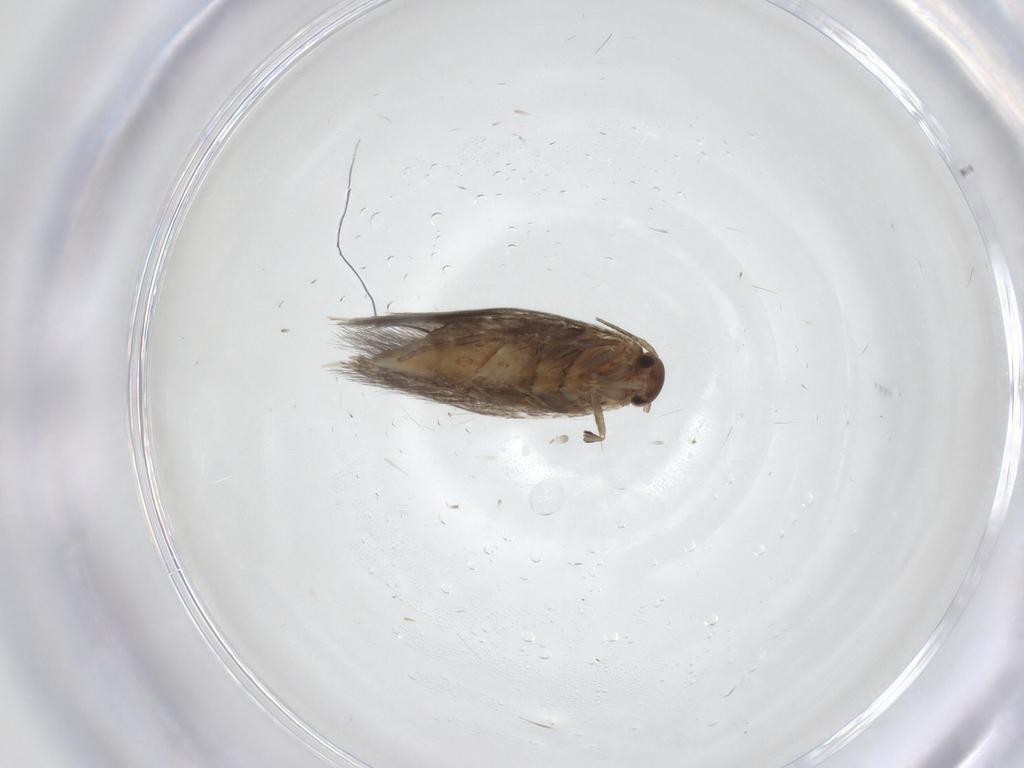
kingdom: Animalia
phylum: Arthropoda
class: Insecta
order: Lepidoptera
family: Elachistidae
